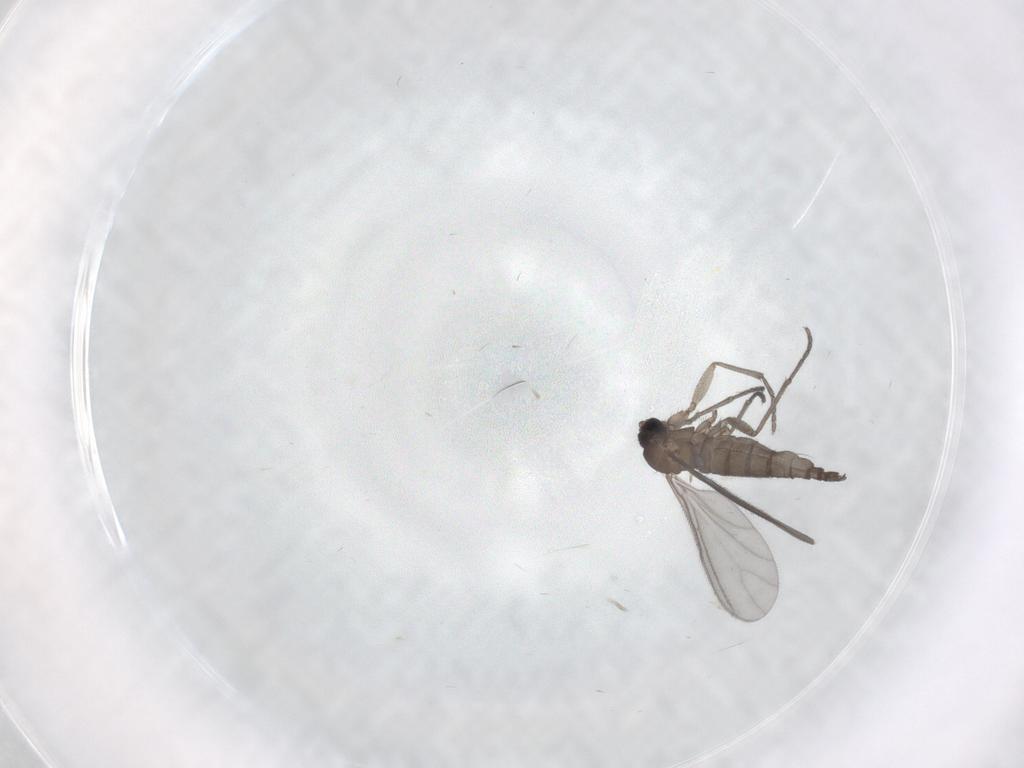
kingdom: Animalia
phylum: Arthropoda
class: Insecta
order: Diptera
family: Sciaridae
